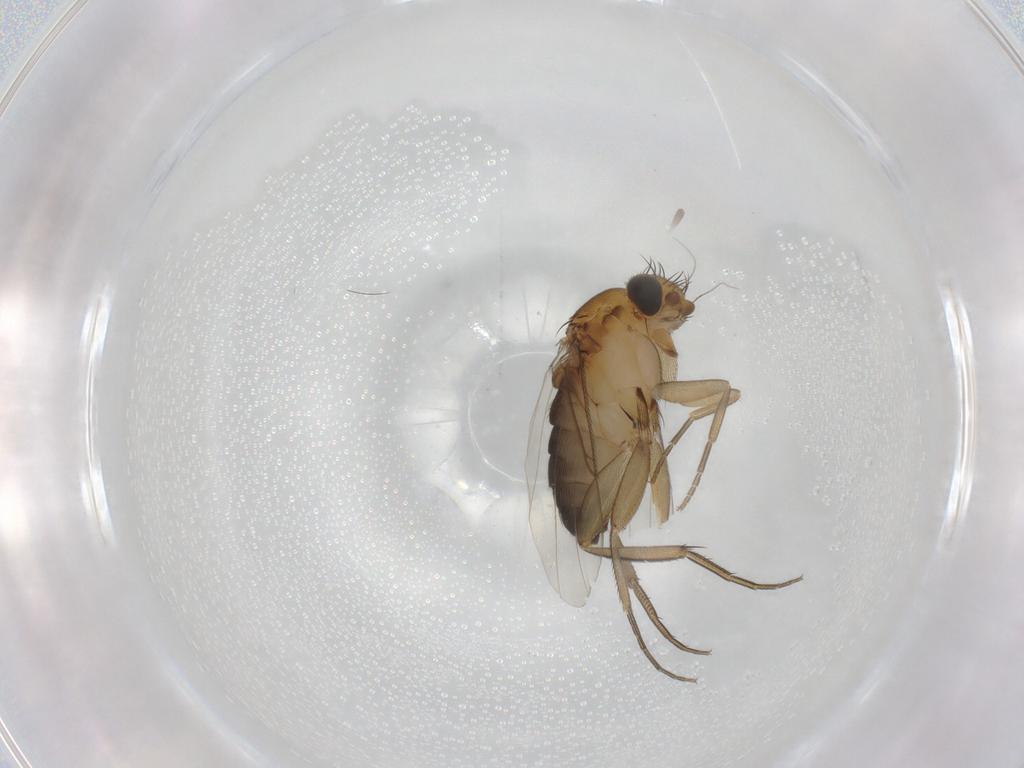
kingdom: Animalia
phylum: Arthropoda
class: Insecta
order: Diptera
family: Phoridae
